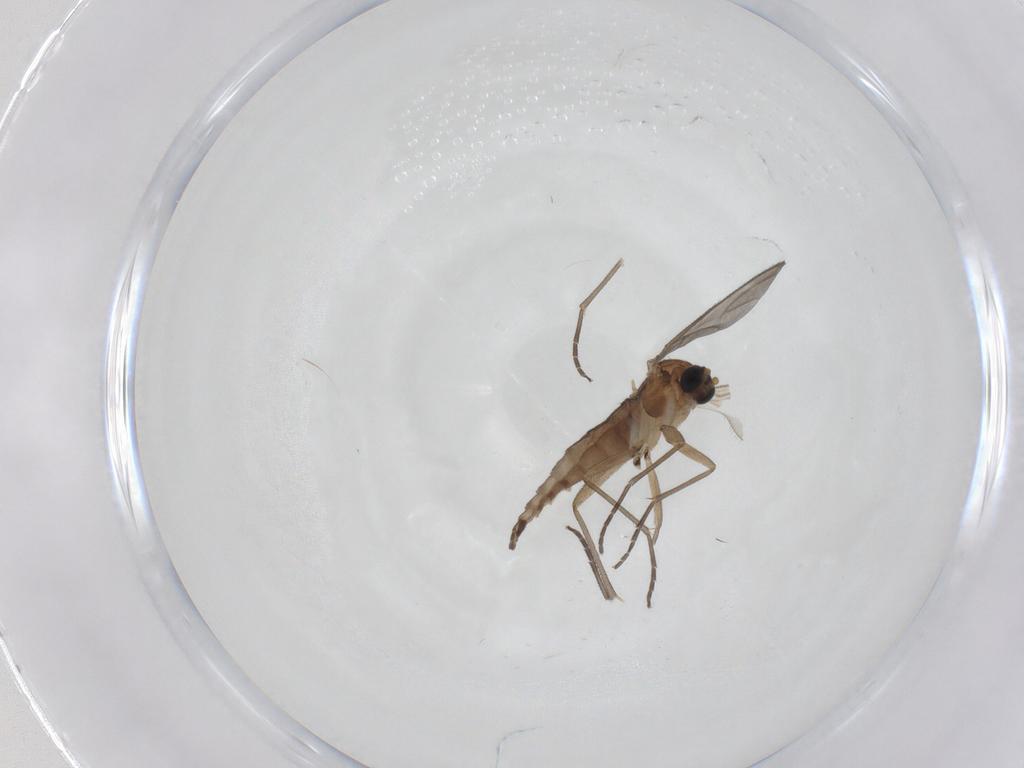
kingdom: Animalia
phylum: Arthropoda
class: Insecta
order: Diptera
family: Sciaridae
